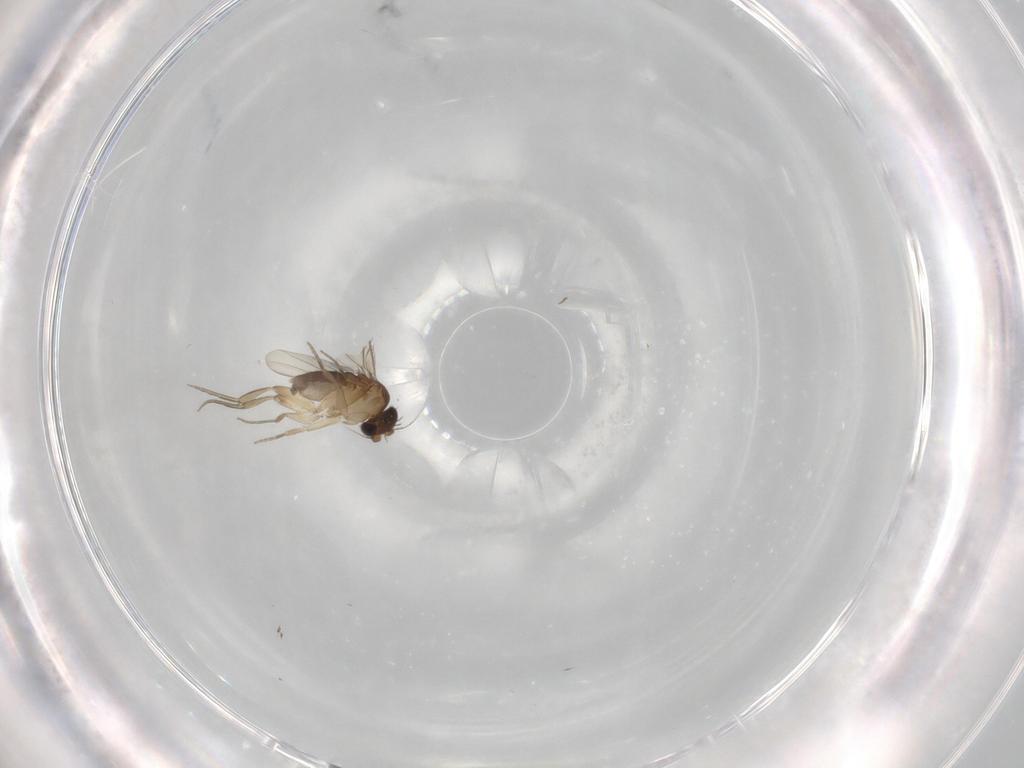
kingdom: Animalia
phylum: Arthropoda
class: Insecta
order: Diptera
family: Phoridae
